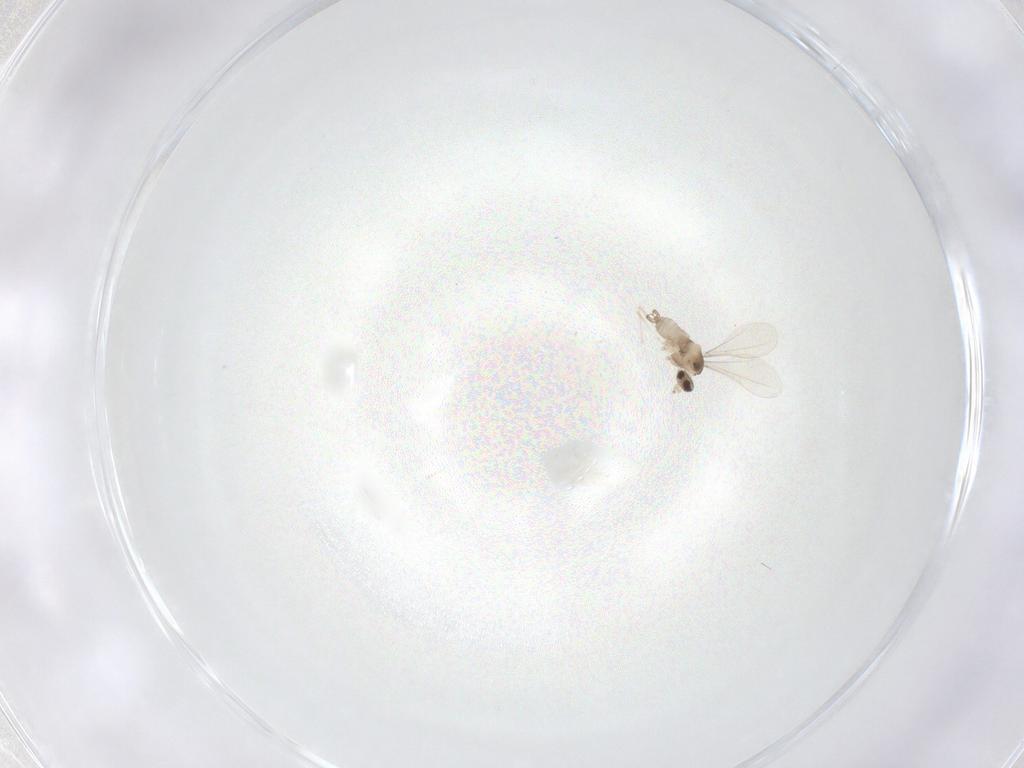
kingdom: Animalia
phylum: Arthropoda
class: Insecta
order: Diptera
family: Cecidomyiidae
